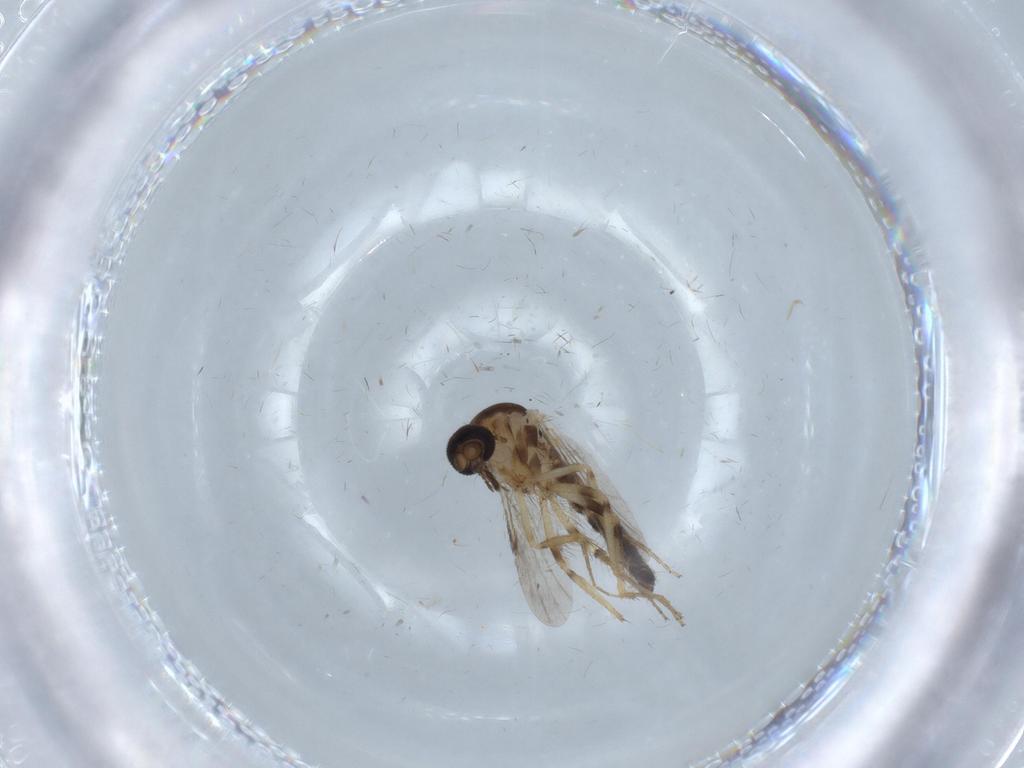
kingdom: Animalia
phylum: Arthropoda
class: Insecta
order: Diptera
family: Ceratopogonidae
